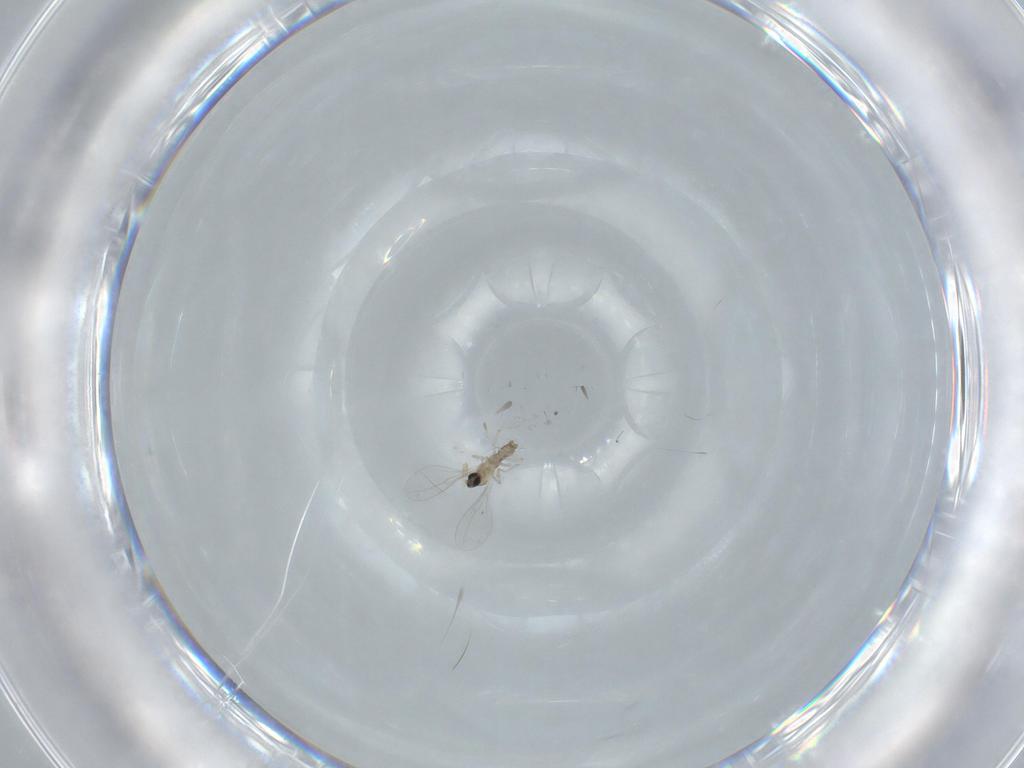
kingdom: Animalia
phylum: Arthropoda
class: Insecta
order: Diptera
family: Cecidomyiidae
